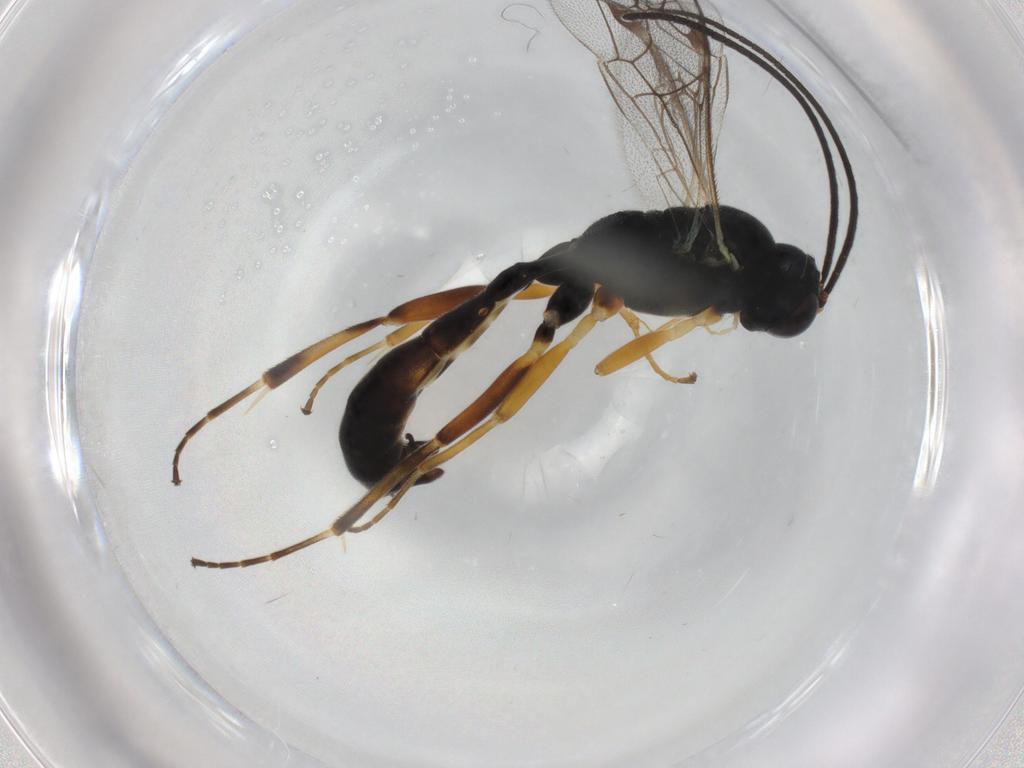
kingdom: Animalia
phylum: Arthropoda
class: Insecta
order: Hymenoptera
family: Ichneumonidae
